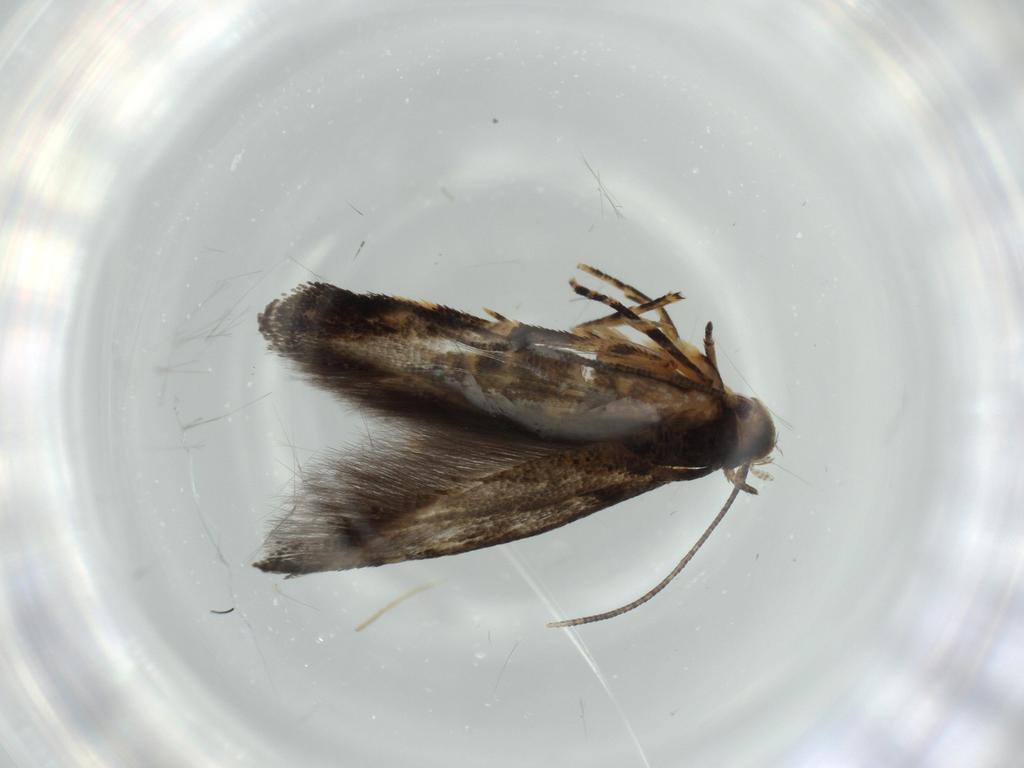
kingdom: Animalia
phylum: Arthropoda
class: Insecta
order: Lepidoptera
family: Momphidae
